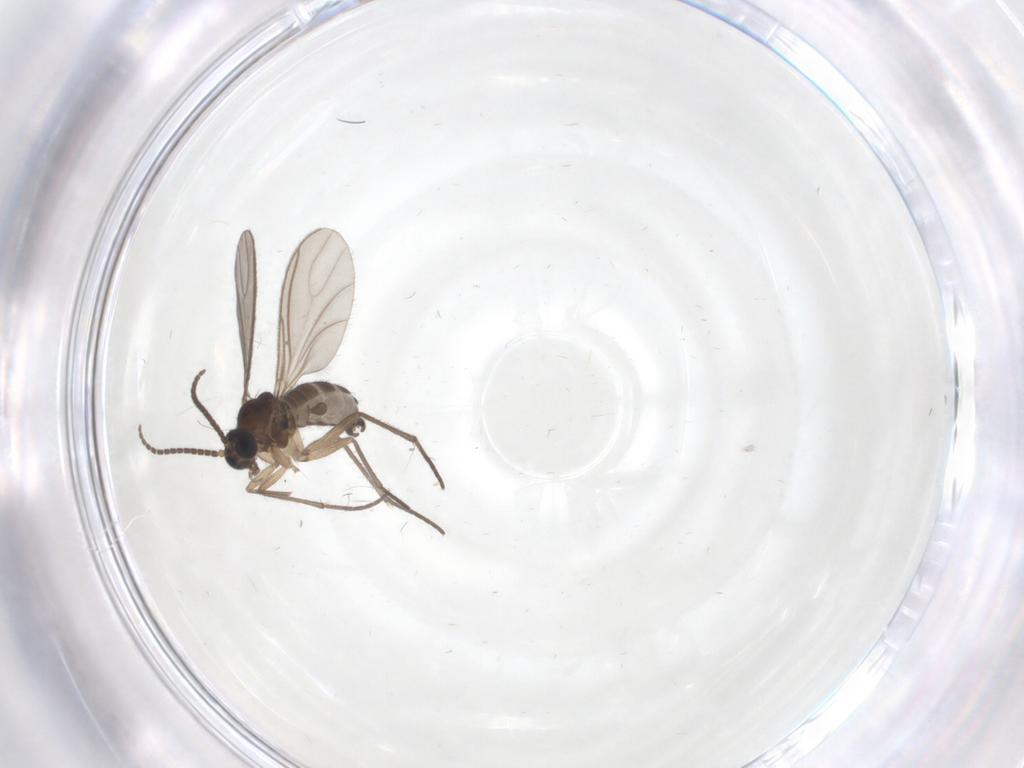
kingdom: Animalia
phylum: Arthropoda
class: Insecta
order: Diptera
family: Sciaridae
